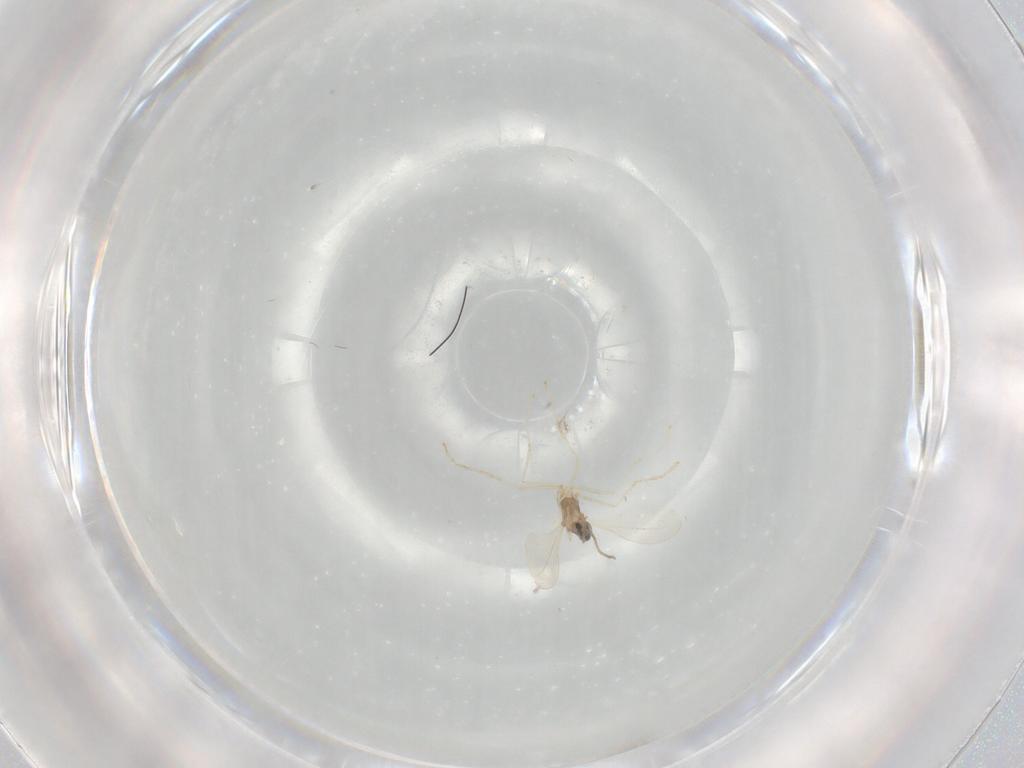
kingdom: Animalia
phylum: Arthropoda
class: Insecta
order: Diptera
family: Cecidomyiidae
